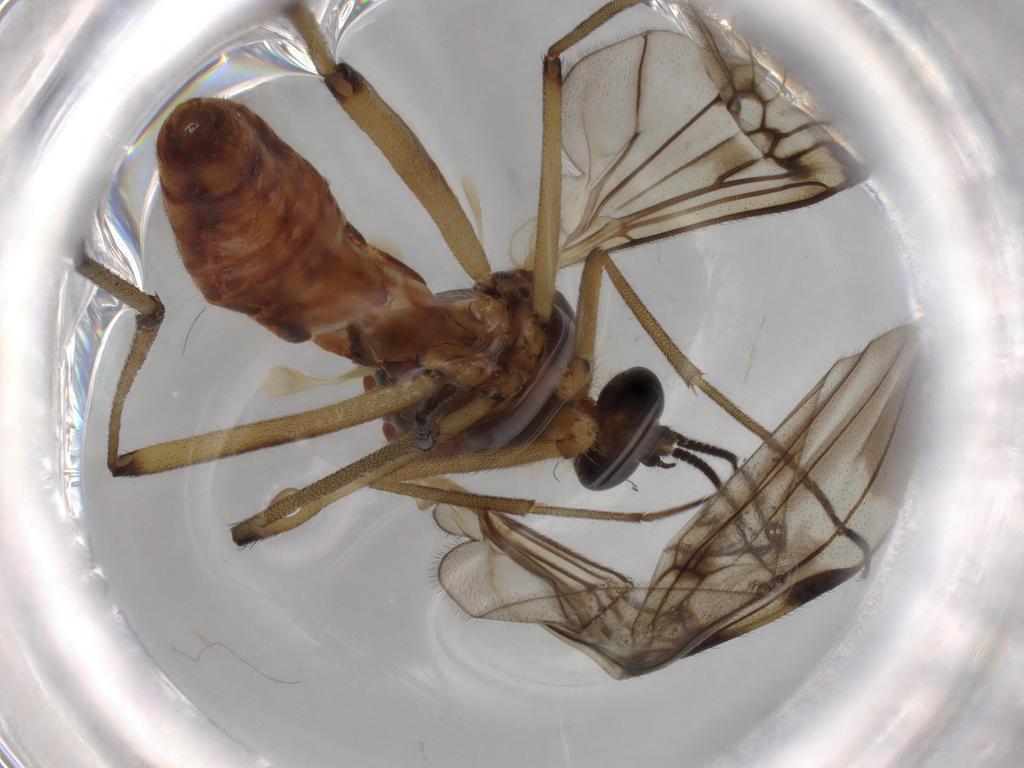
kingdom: Animalia
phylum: Arthropoda
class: Insecta
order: Diptera
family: Anisopodidae
